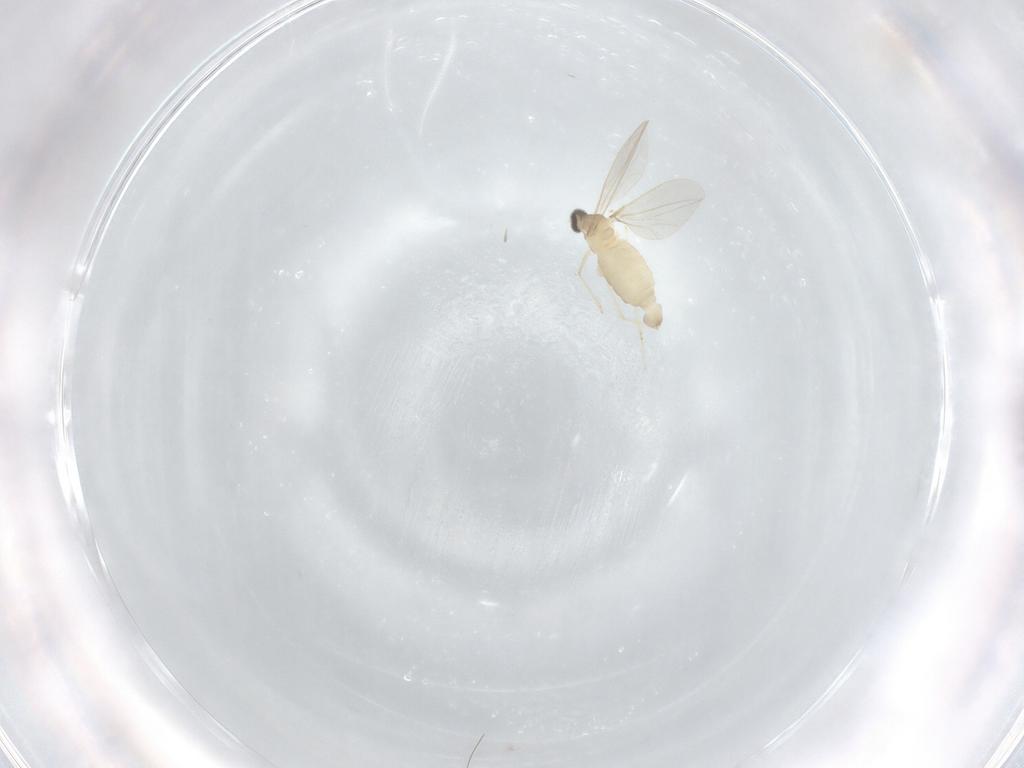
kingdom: Animalia
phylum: Arthropoda
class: Insecta
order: Diptera
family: Cecidomyiidae
